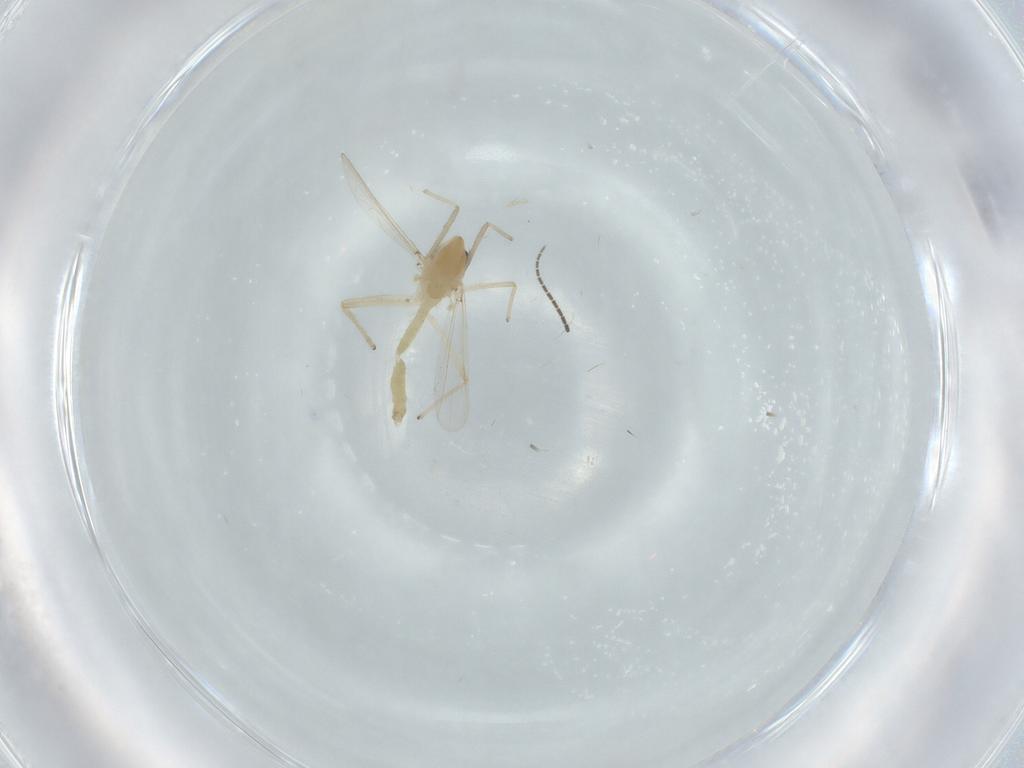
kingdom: Animalia
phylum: Arthropoda
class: Insecta
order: Diptera
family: Chironomidae
